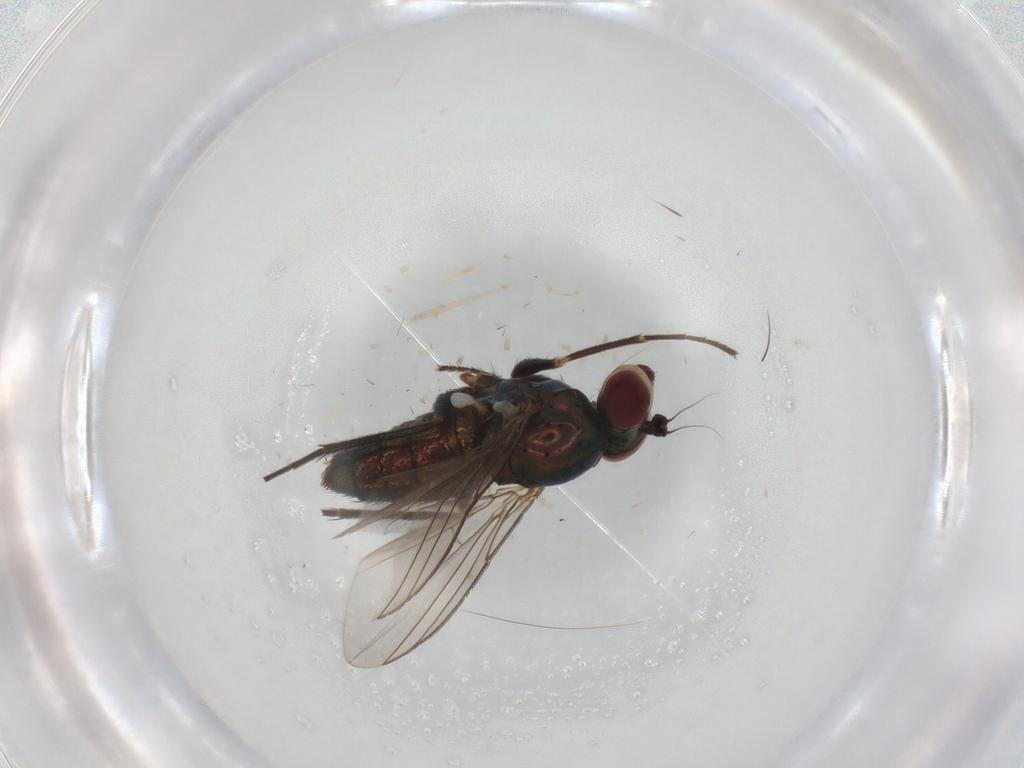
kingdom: Animalia
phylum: Arthropoda
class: Insecta
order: Diptera
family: Dolichopodidae
